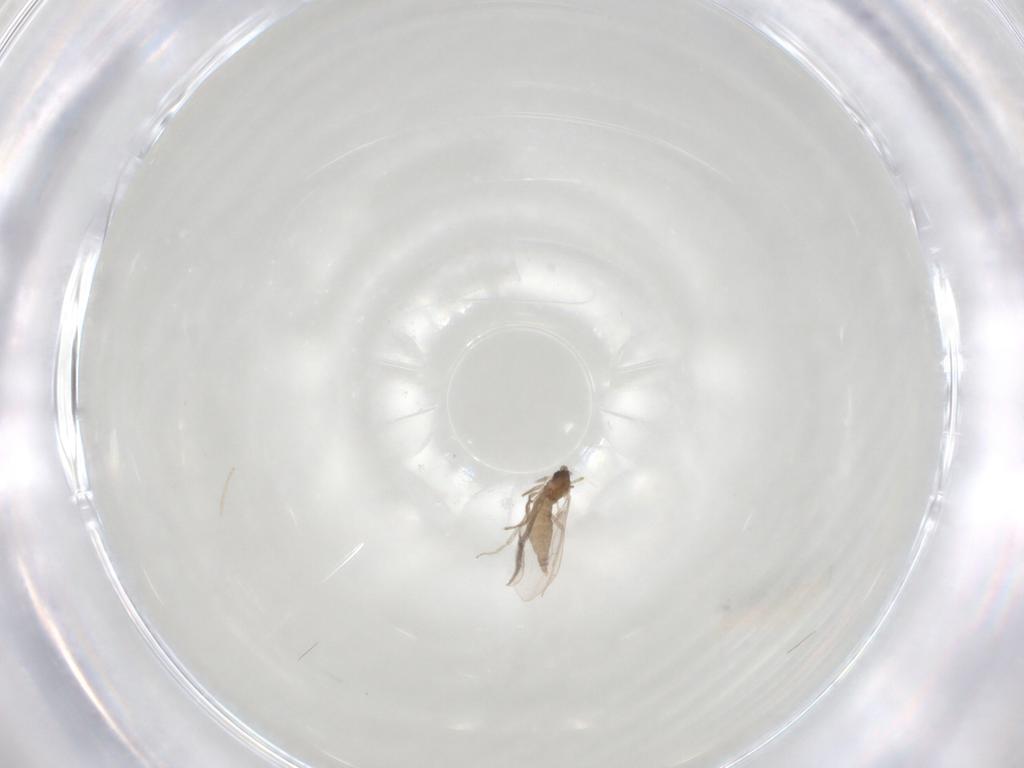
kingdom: Animalia
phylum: Arthropoda
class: Insecta
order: Diptera
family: Cecidomyiidae
